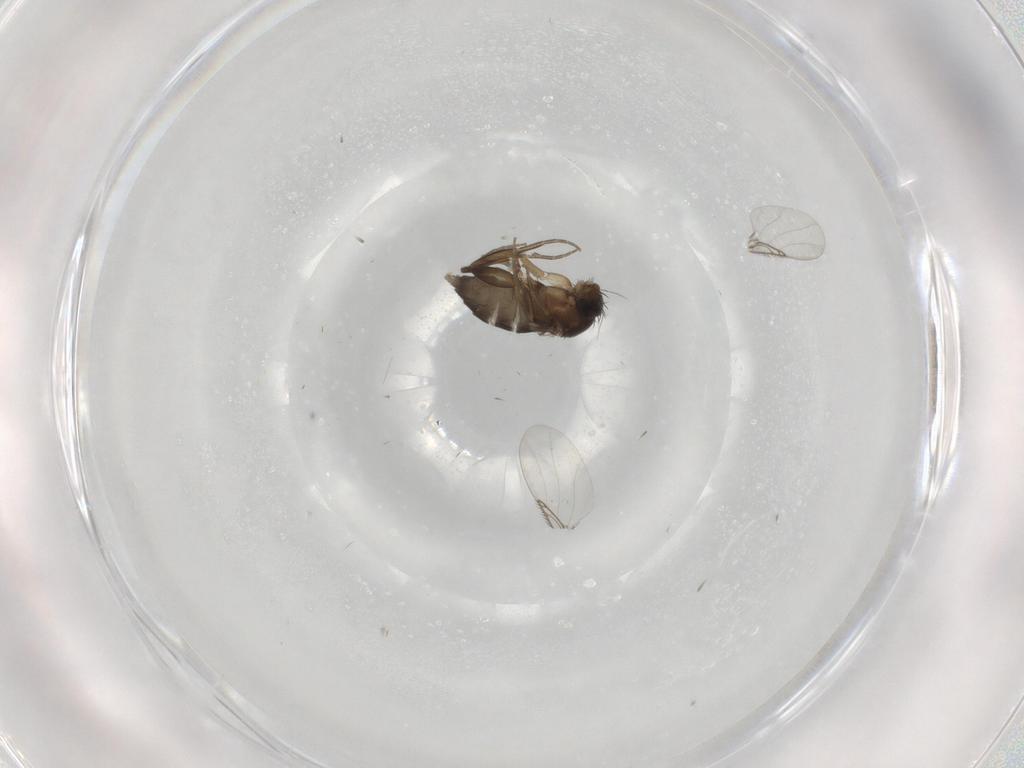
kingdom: Animalia
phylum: Arthropoda
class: Insecta
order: Diptera
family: Phoridae
